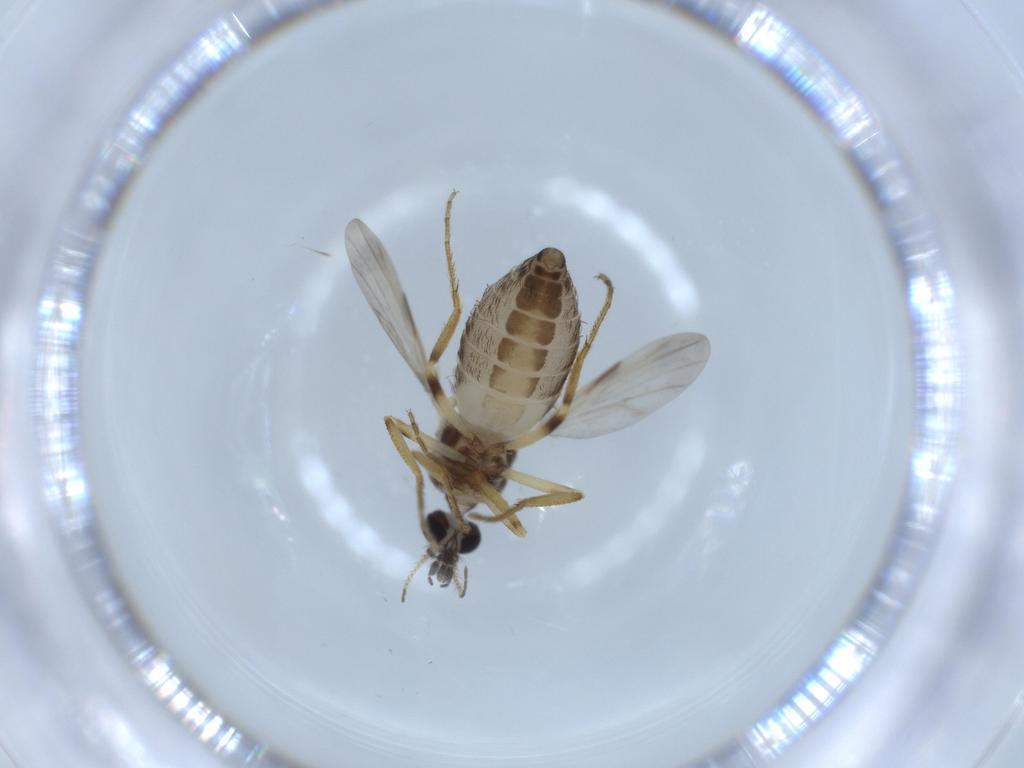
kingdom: Animalia
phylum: Arthropoda
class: Insecta
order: Diptera
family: Ceratopogonidae
